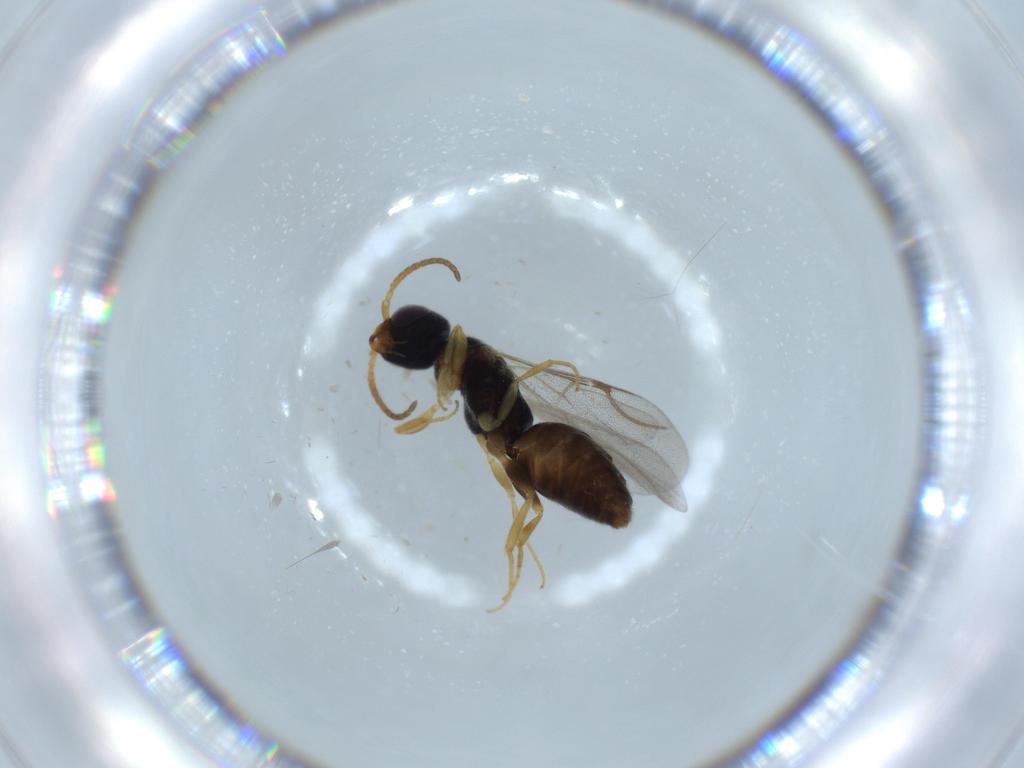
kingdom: Animalia
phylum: Arthropoda
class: Insecta
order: Hymenoptera
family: Bethylidae
